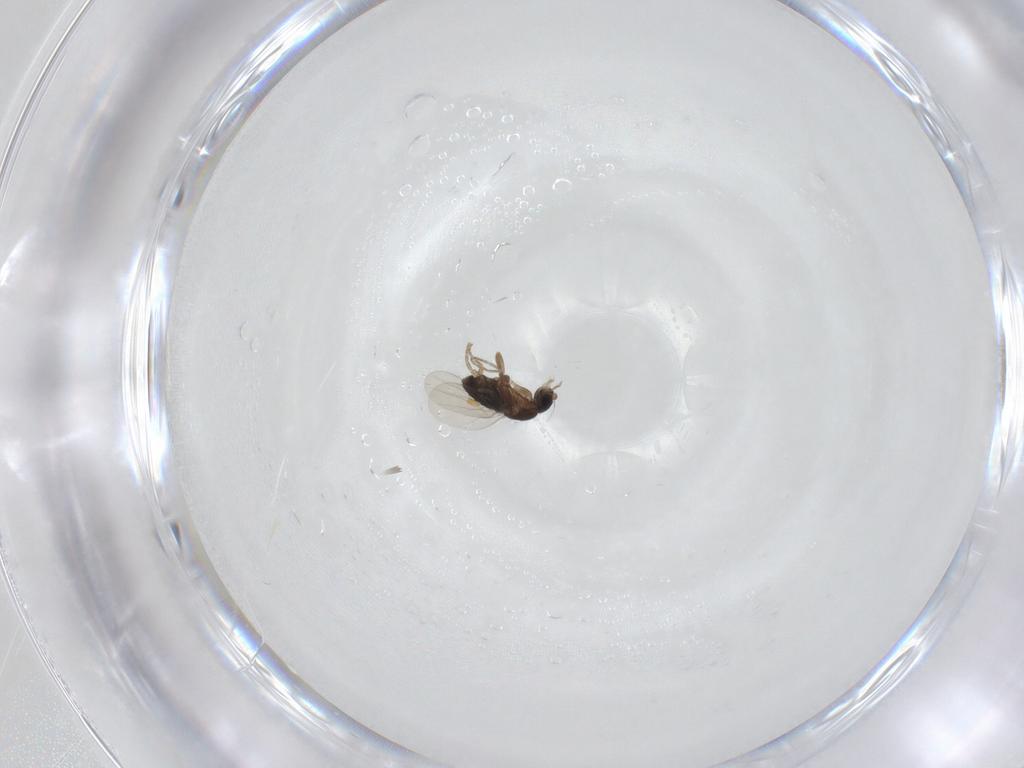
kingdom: Animalia
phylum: Arthropoda
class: Insecta
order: Diptera
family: Phoridae
